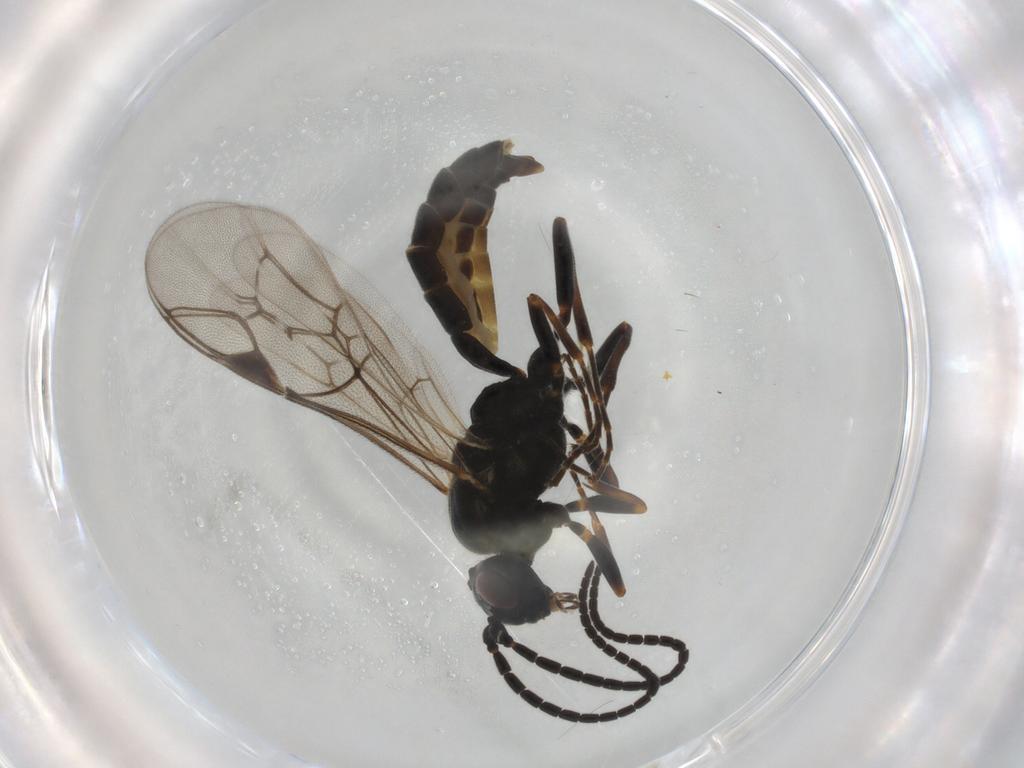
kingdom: Animalia
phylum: Arthropoda
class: Insecta
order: Hymenoptera
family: Ichneumonidae
